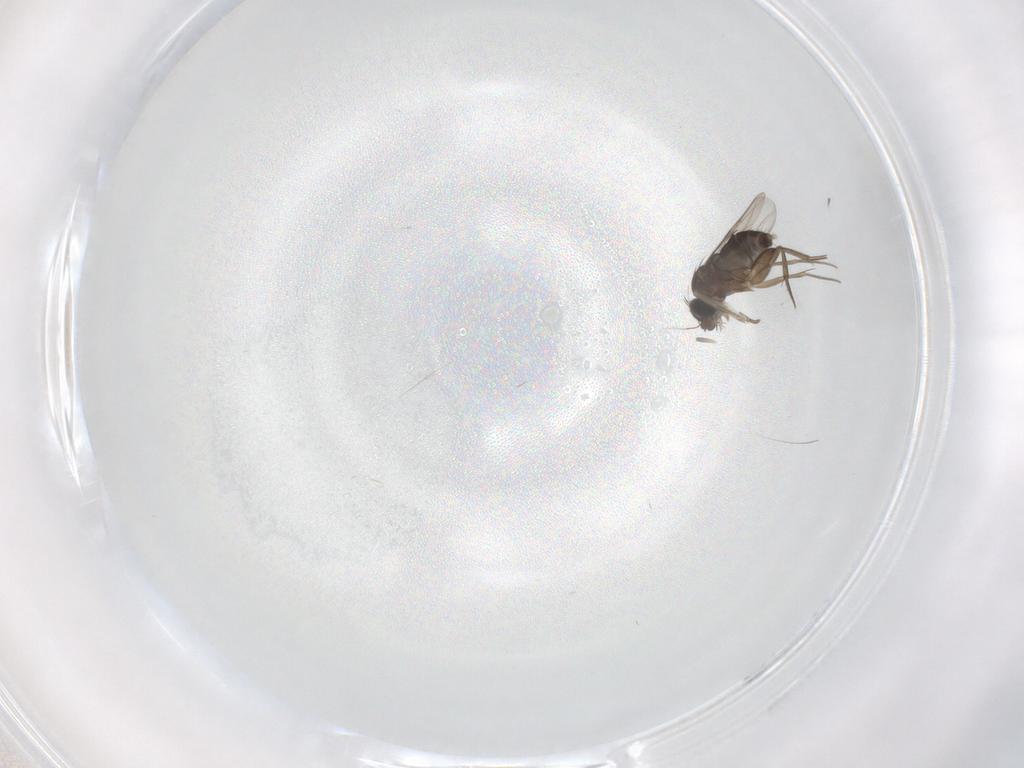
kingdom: Animalia
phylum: Arthropoda
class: Insecta
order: Diptera
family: Phoridae
